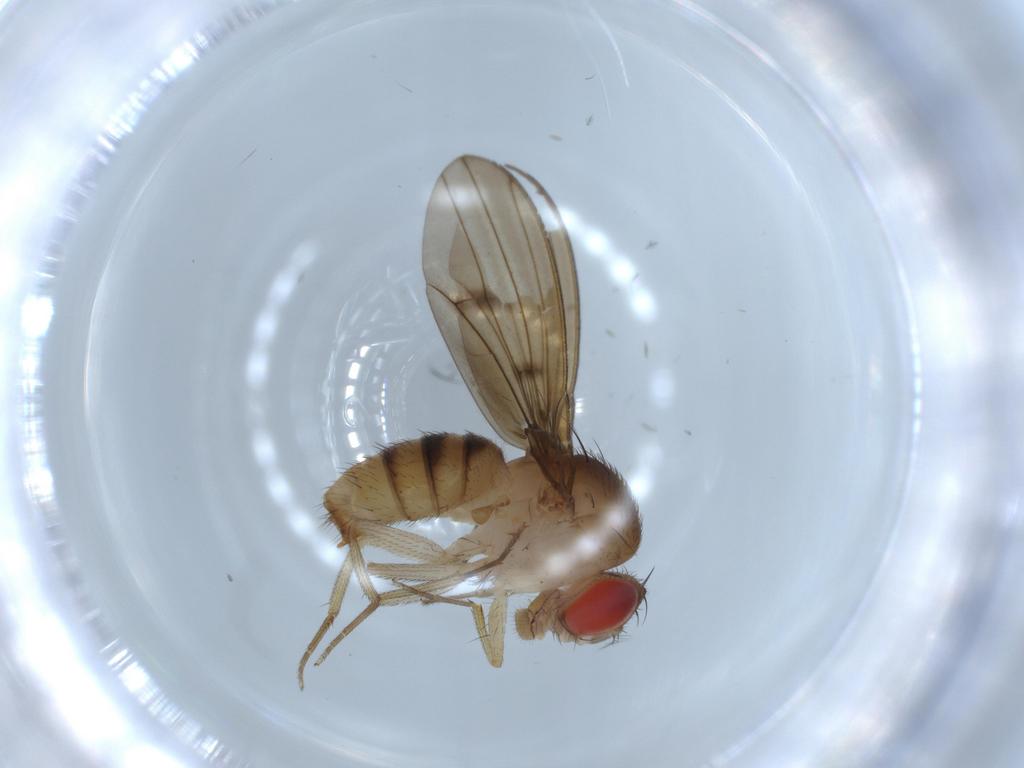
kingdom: Animalia
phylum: Arthropoda
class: Insecta
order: Diptera
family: Drosophilidae
